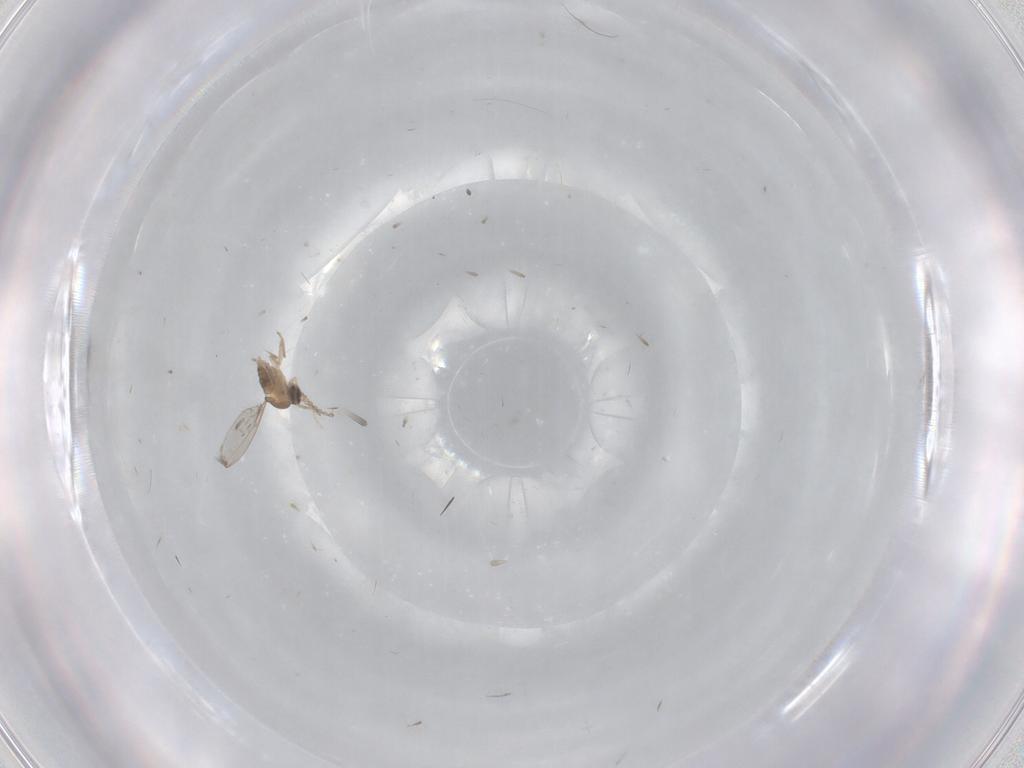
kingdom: Animalia
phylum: Arthropoda
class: Insecta
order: Diptera
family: Cecidomyiidae
